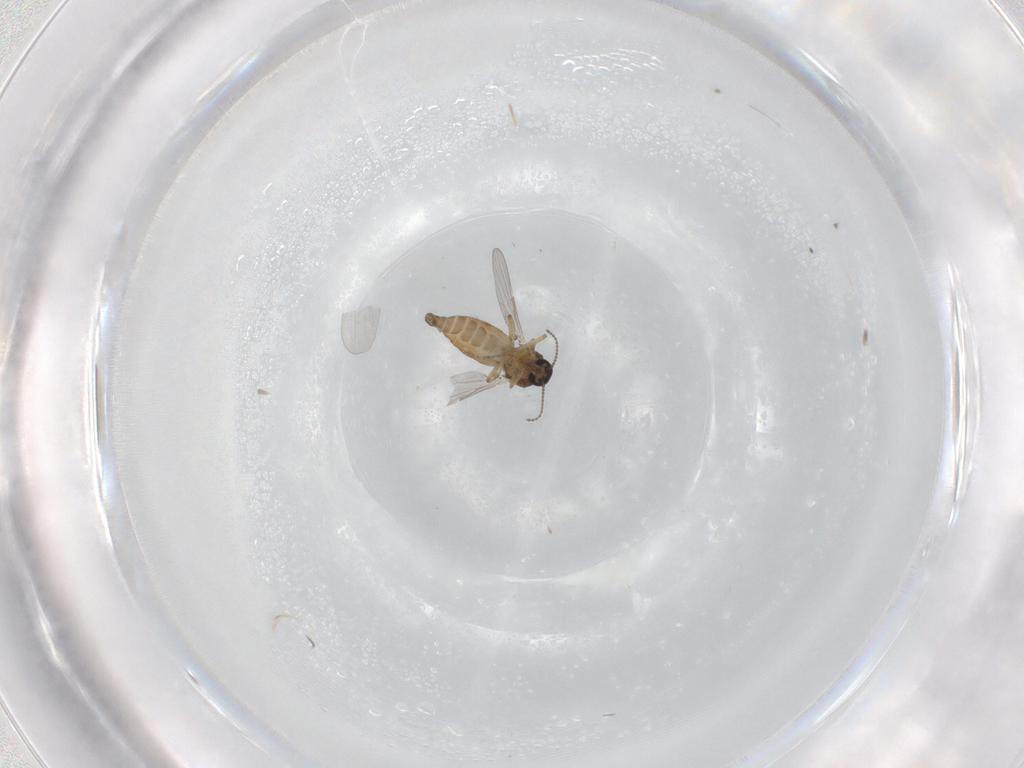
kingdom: Animalia
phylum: Arthropoda
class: Insecta
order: Diptera
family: Ceratopogonidae
